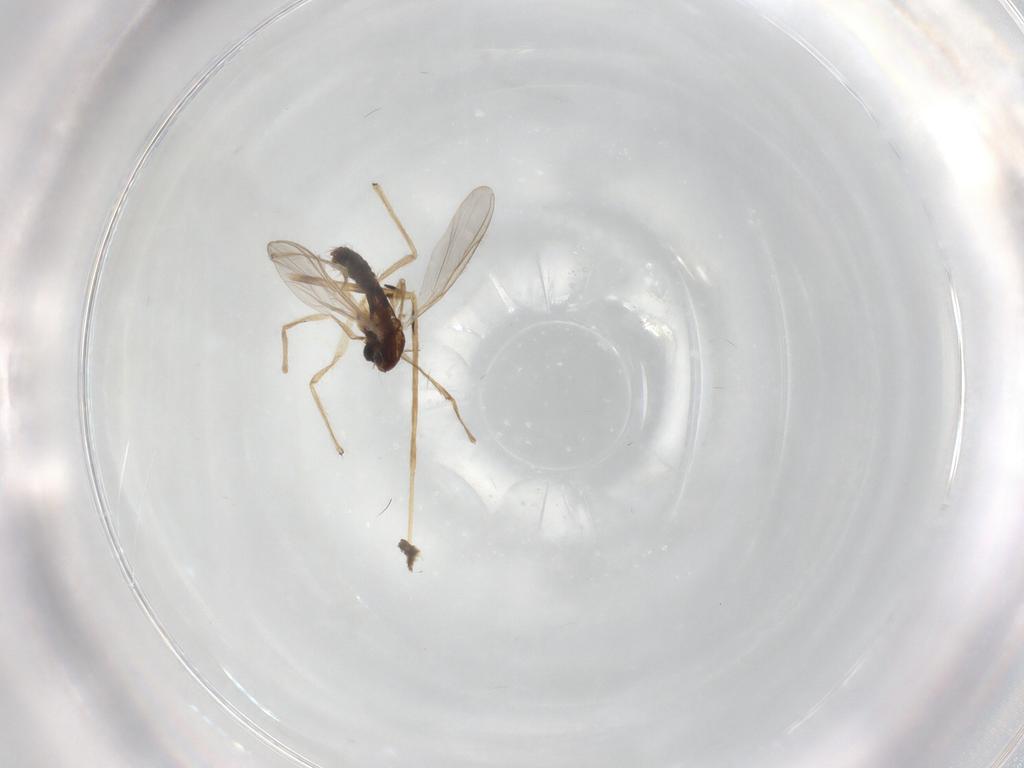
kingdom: Animalia
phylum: Arthropoda
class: Insecta
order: Diptera
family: Chironomidae
